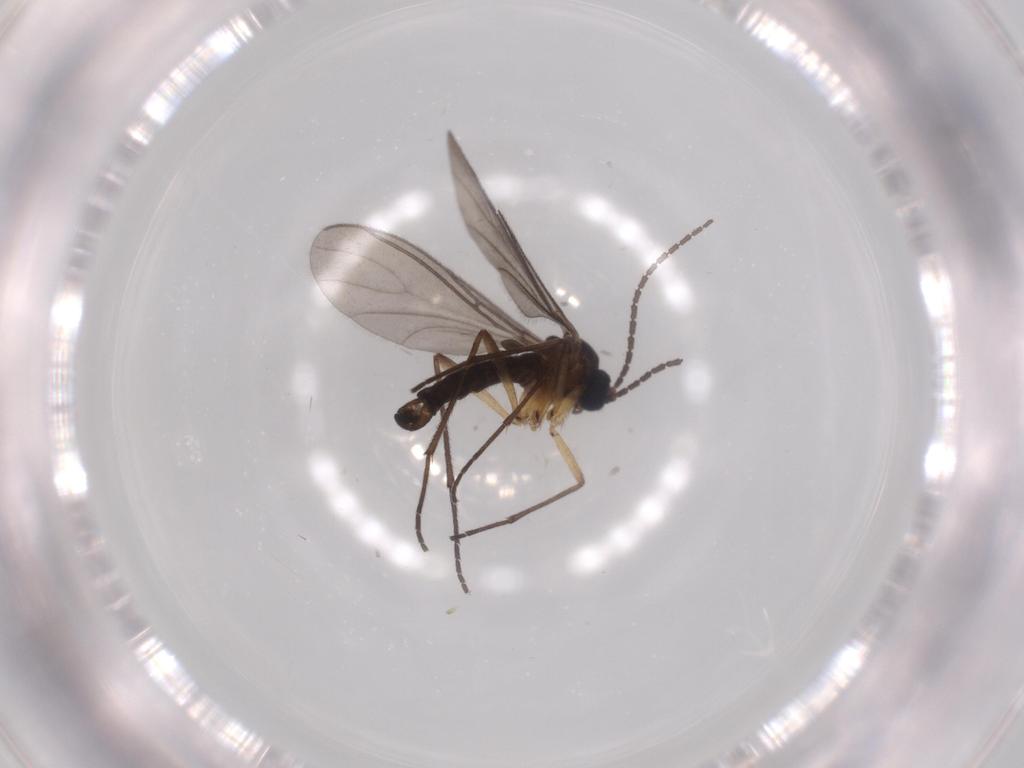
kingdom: Animalia
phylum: Arthropoda
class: Insecta
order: Diptera
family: Sciaridae
